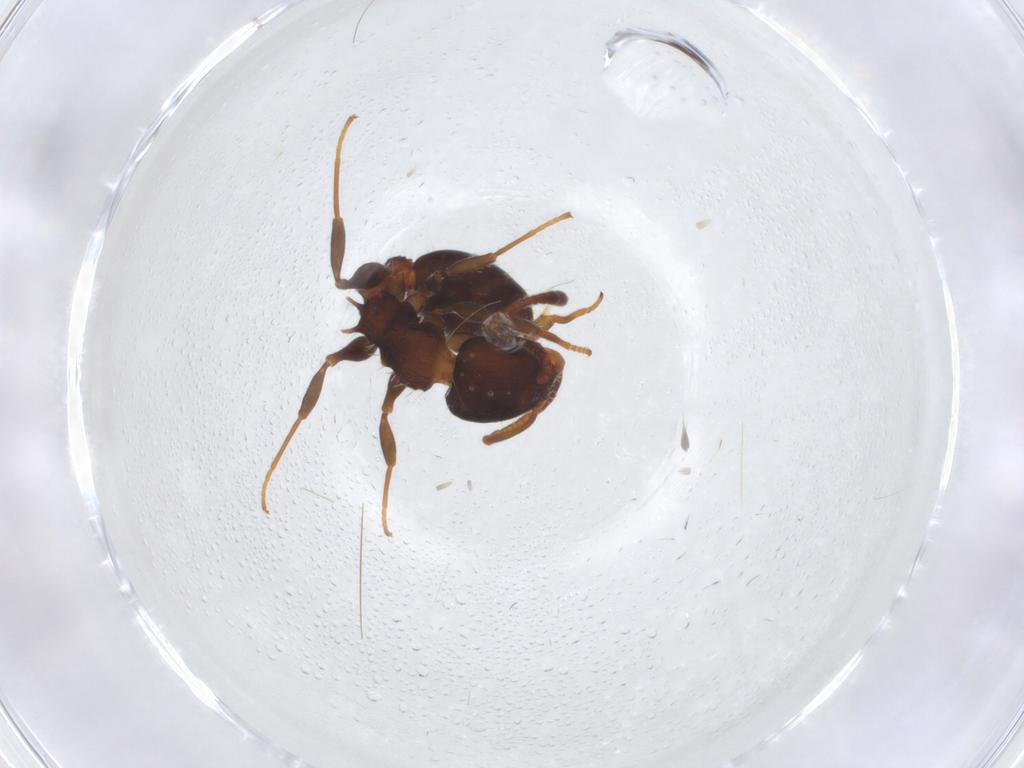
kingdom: Animalia
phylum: Arthropoda
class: Insecta
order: Hymenoptera
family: Formicidae
